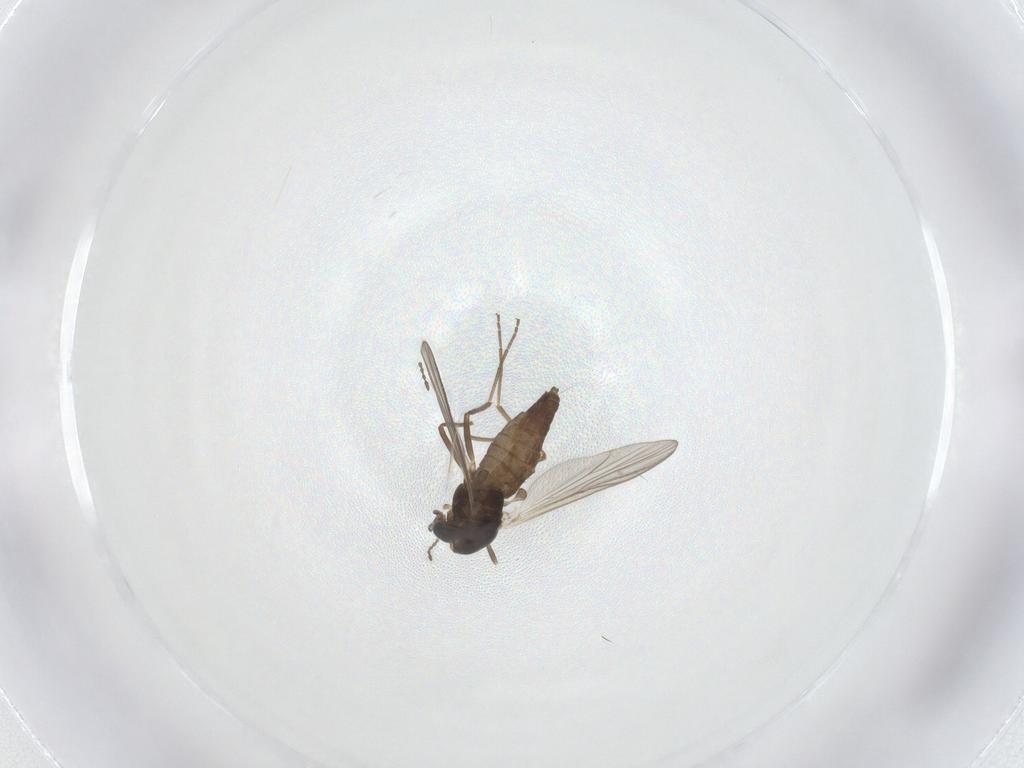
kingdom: Animalia
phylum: Arthropoda
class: Insecta
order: Diptera
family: Chironomidae
